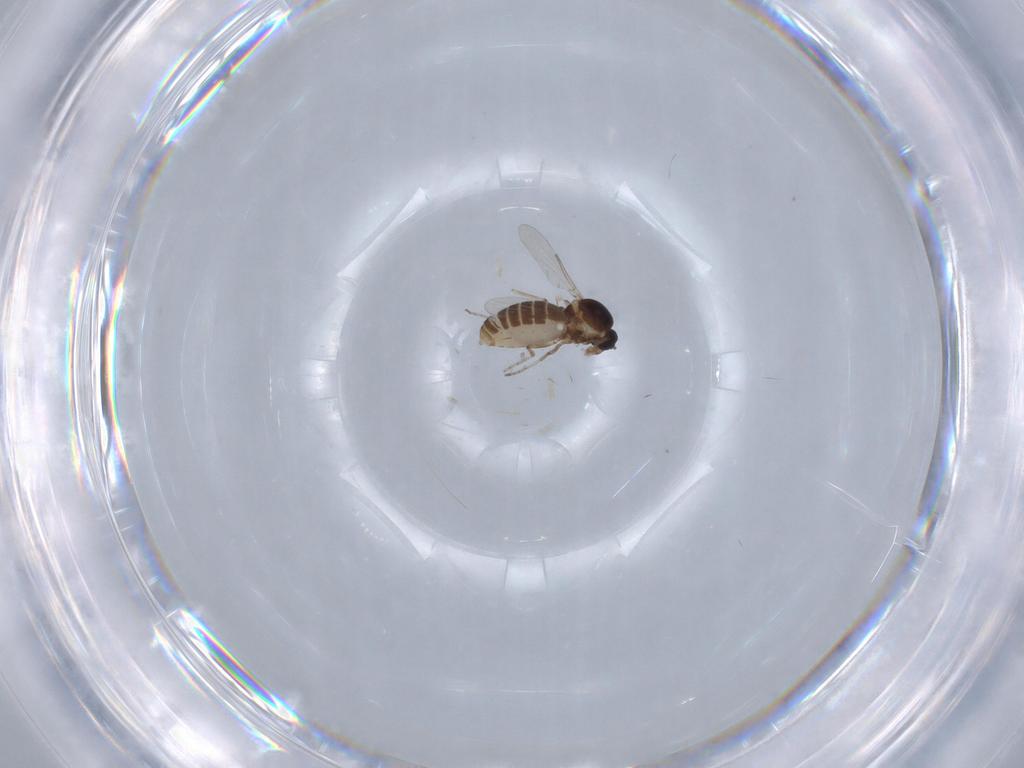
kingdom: Animalia
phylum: Arthropoda
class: Insecta
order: Diptera
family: Ceratopogonidae
